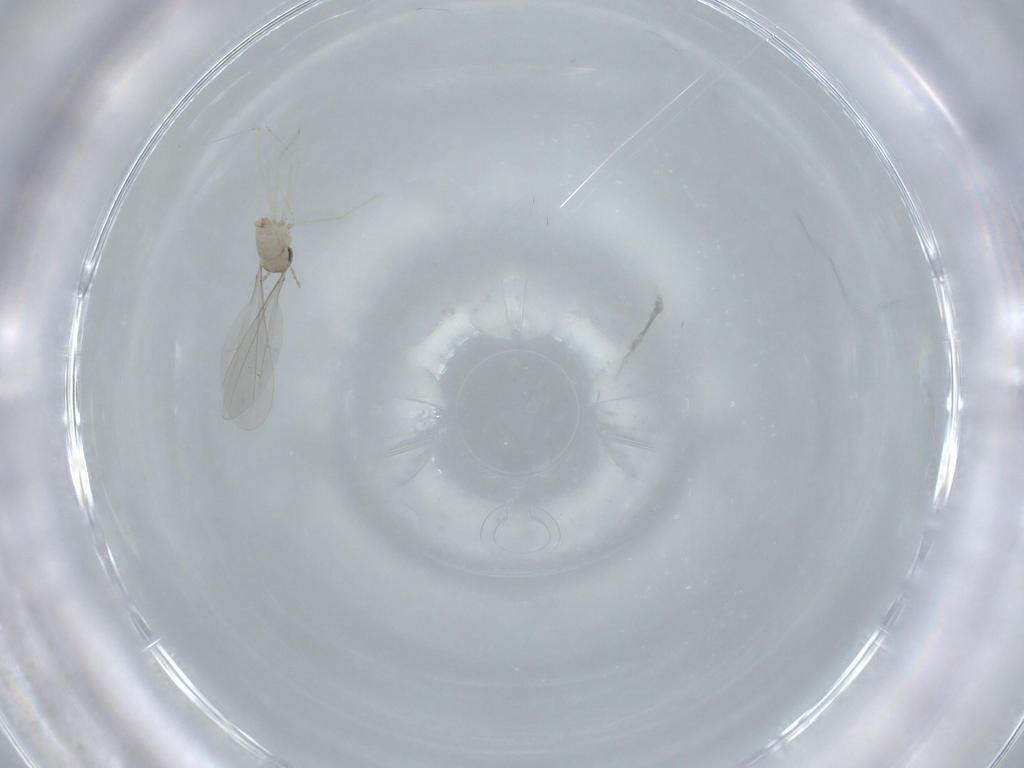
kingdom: Animalia
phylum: Arthropoda
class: Insecta
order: Diptera
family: Cecidomyiidae
